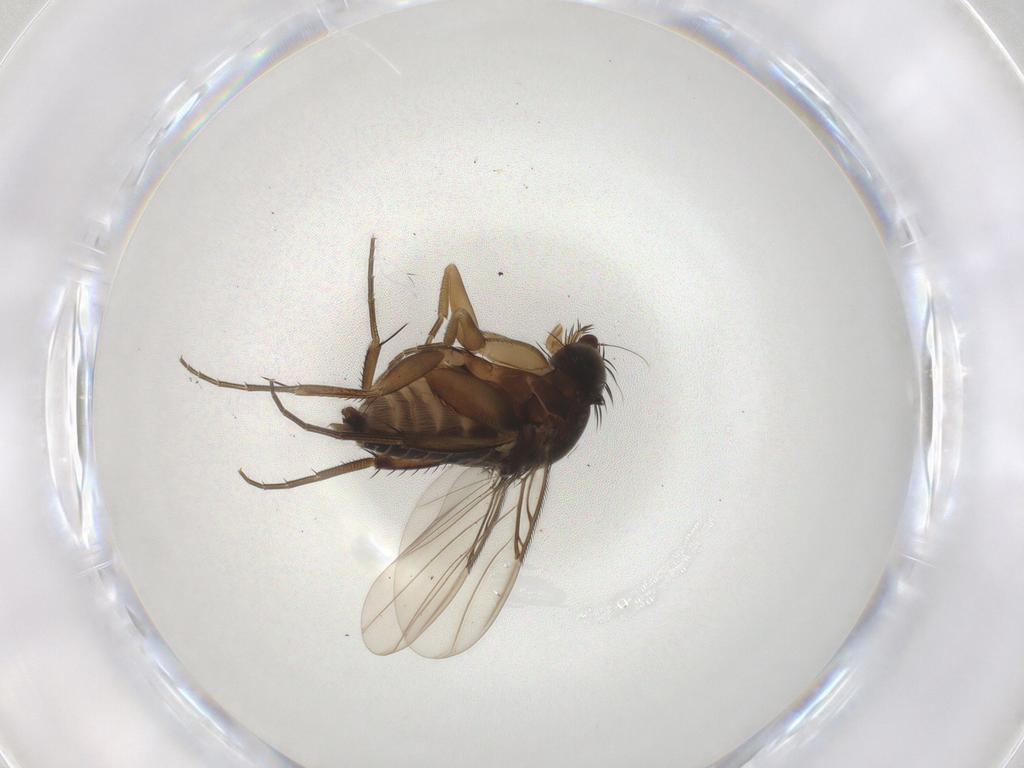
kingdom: Animalia
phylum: Arthropoda
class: Insecta
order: Diptera
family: Phoridae
